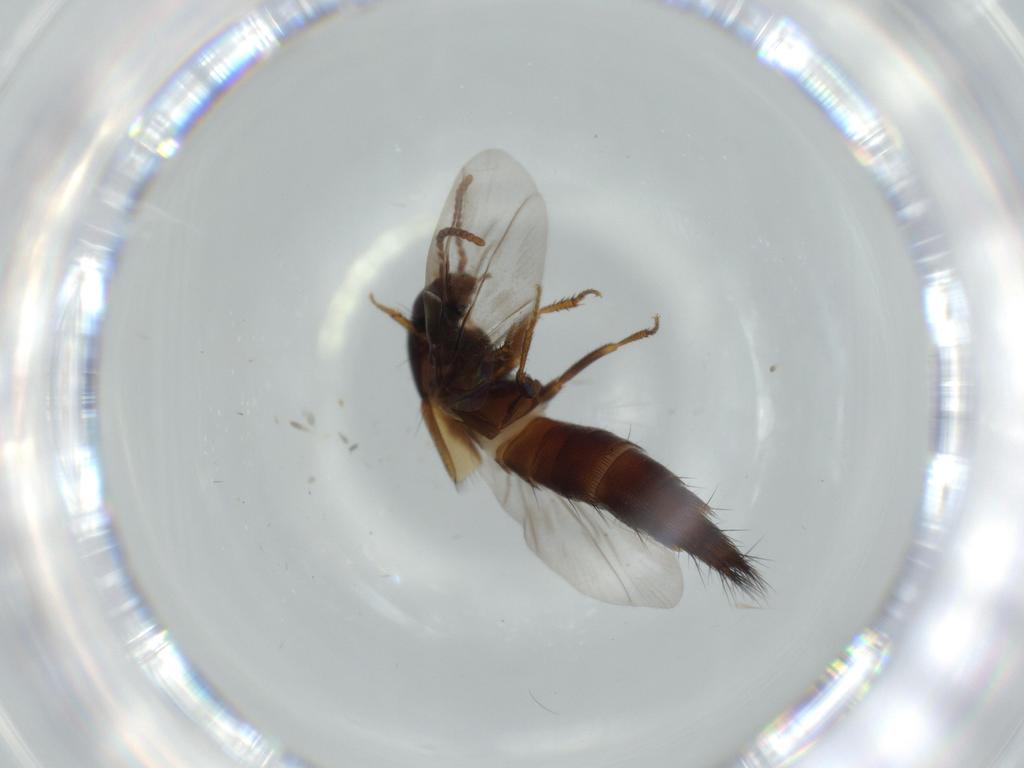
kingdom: Animalia
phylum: Arthropoda
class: Insecta
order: Coleoptera
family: Staphylinidae
